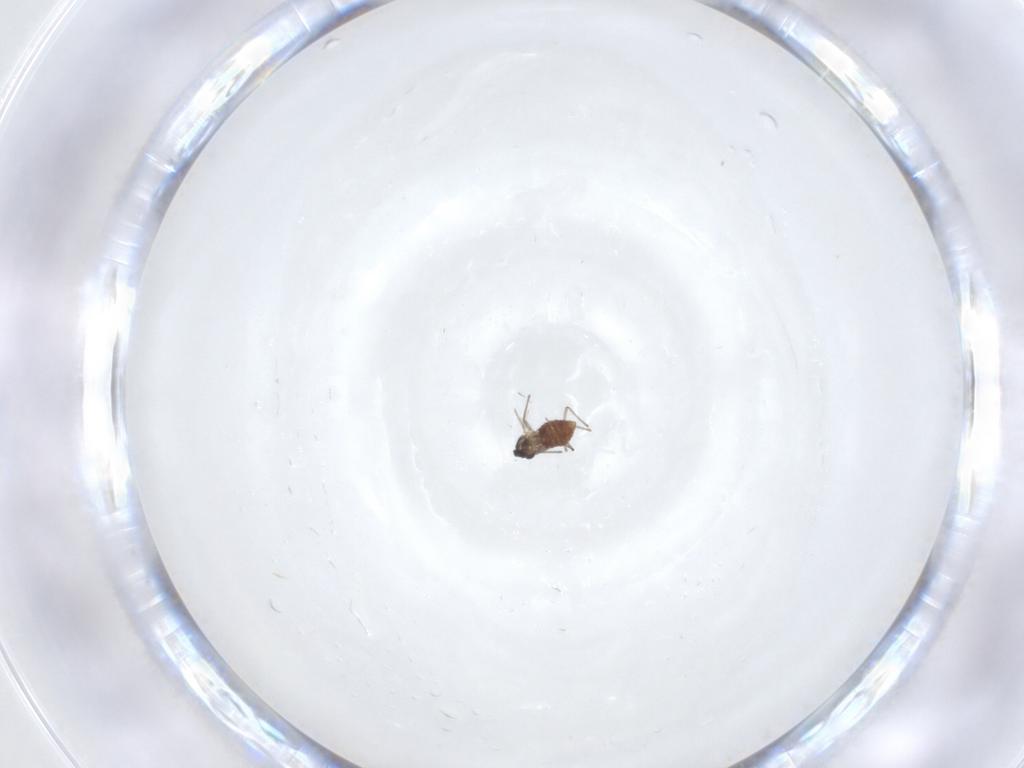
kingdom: Animalia
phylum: Arthropoda
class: Insecta
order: Diptera
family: Chironomidae
